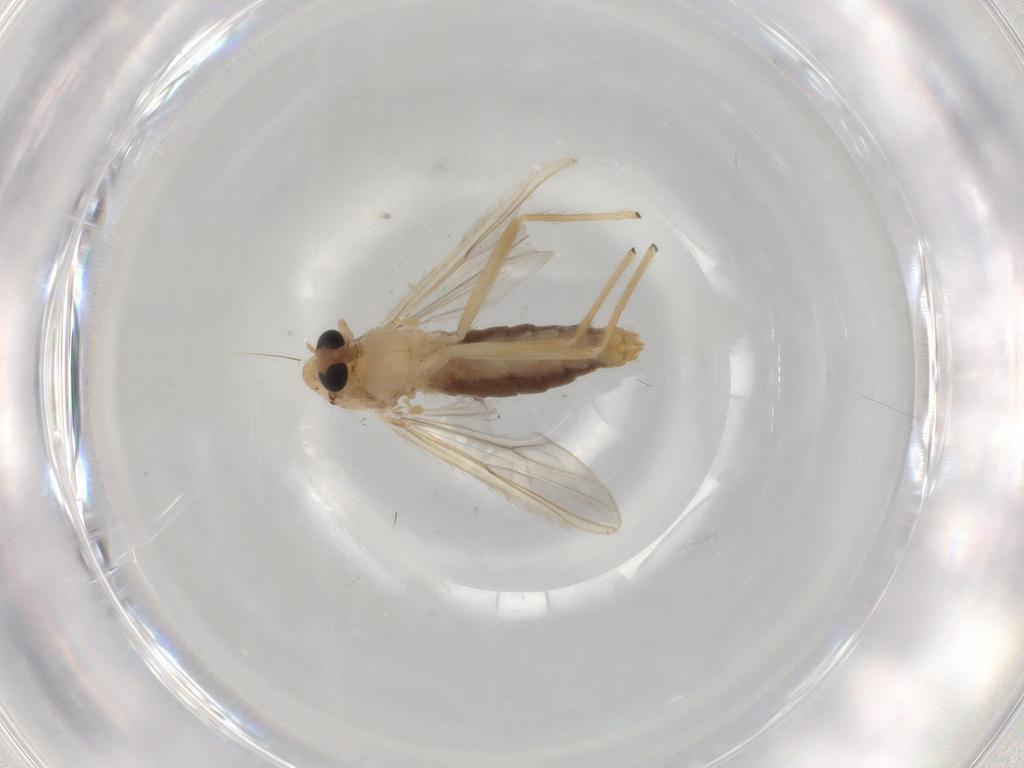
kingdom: Animalia
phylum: Arthropoda
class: Insecta
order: Diptera
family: Chironomidae
